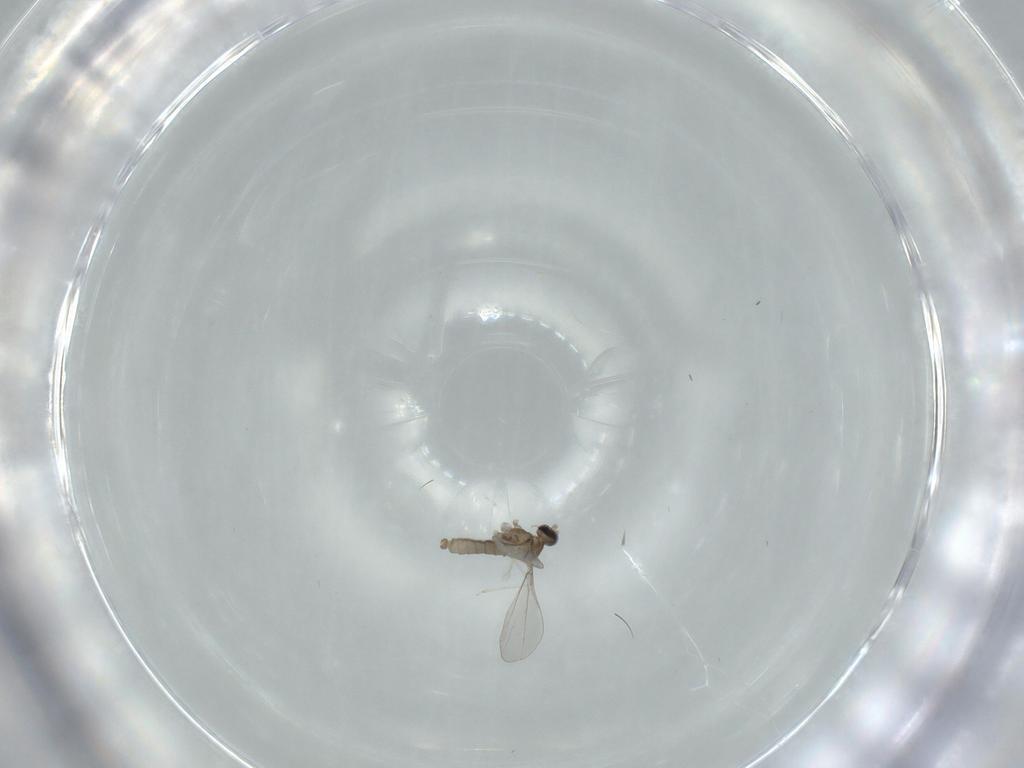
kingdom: Animalia
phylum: Arthropoda
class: Insecta
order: Diptera
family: Cecidomyiidae
